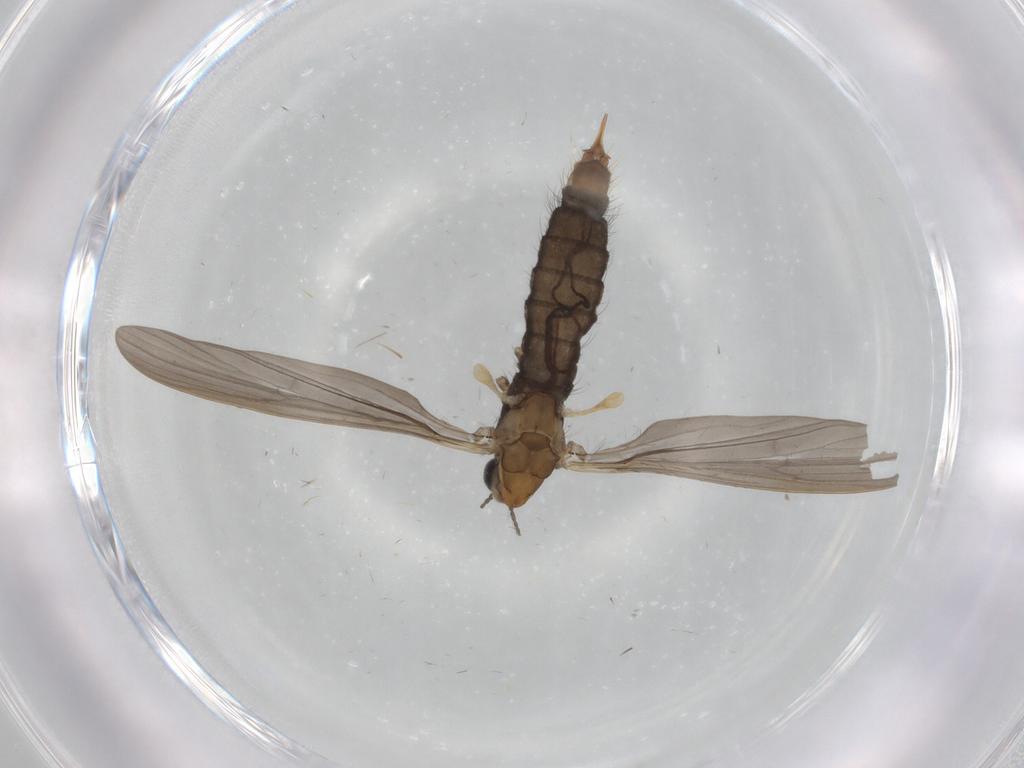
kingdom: Animalia
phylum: Arthropoda
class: Insecta
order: Diptera
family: Limoniidae
